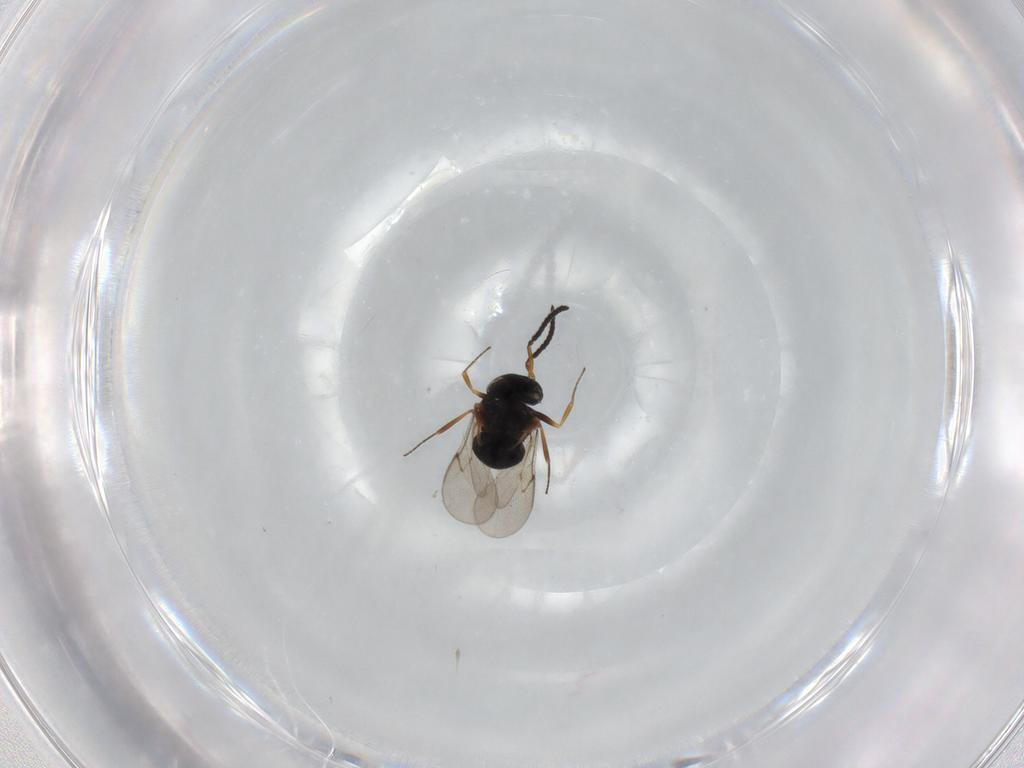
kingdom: Animalia
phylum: Arthropoda
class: Insecta
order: Hymenoptera
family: Scelionidae
